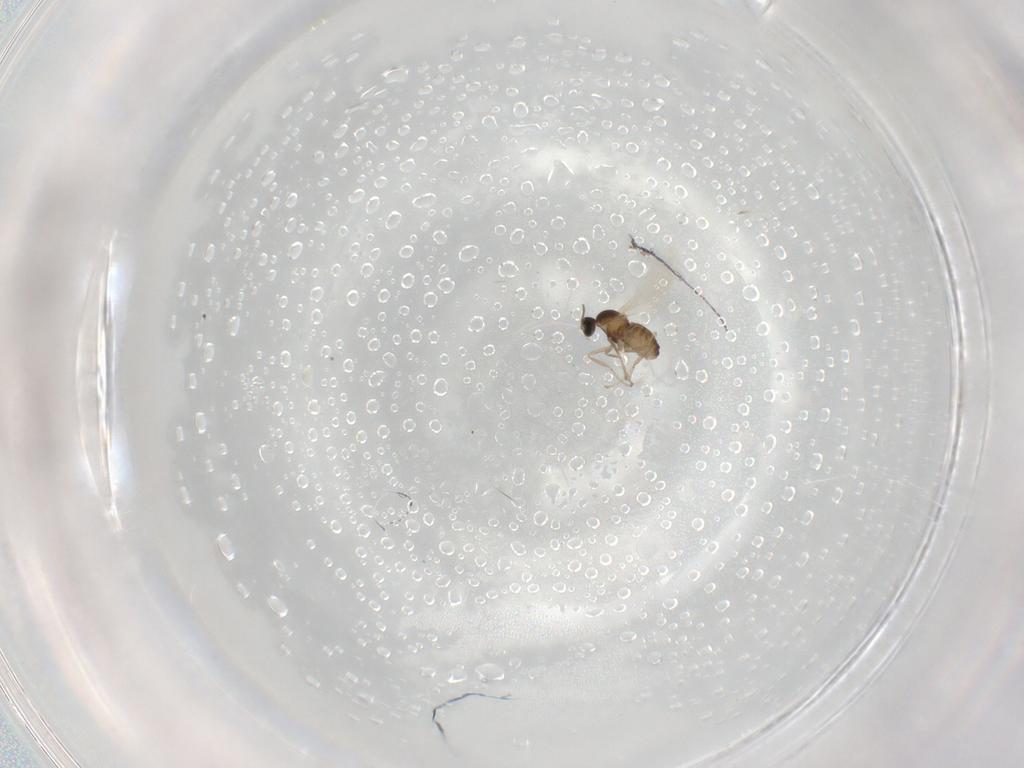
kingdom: Animalia
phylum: Arthropoda
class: Insecta
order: Diptera
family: Cecidomyiidae
